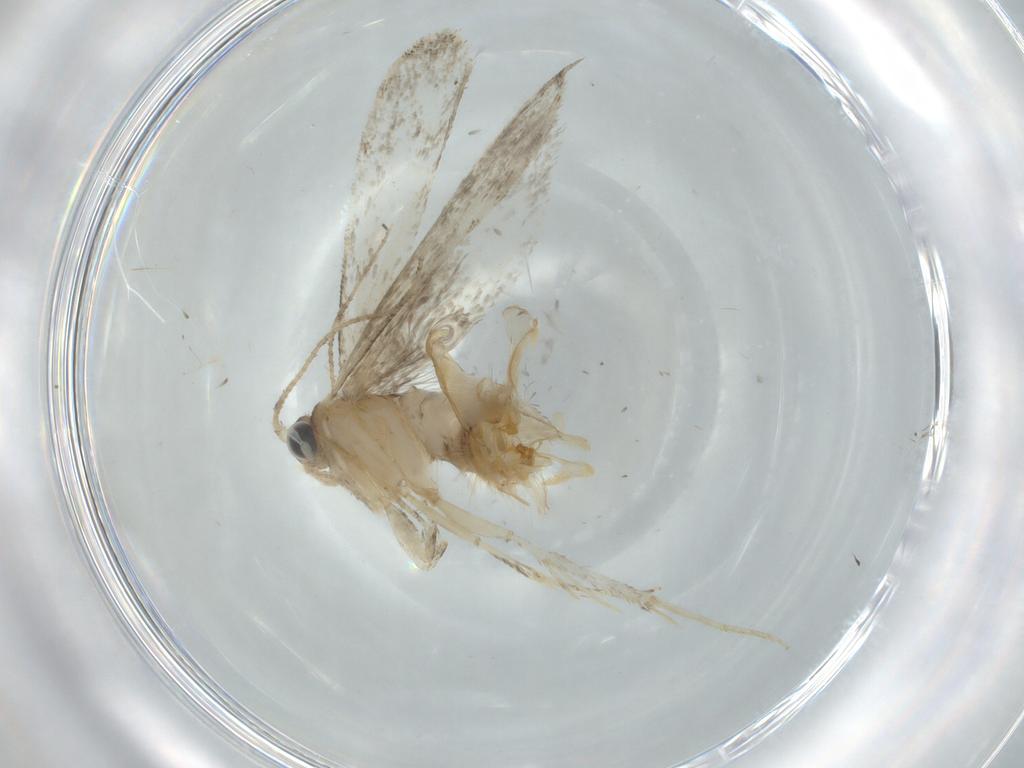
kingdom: Animalia
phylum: Arthropoda
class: Insecta
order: Lepidoptera
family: Tineidae
